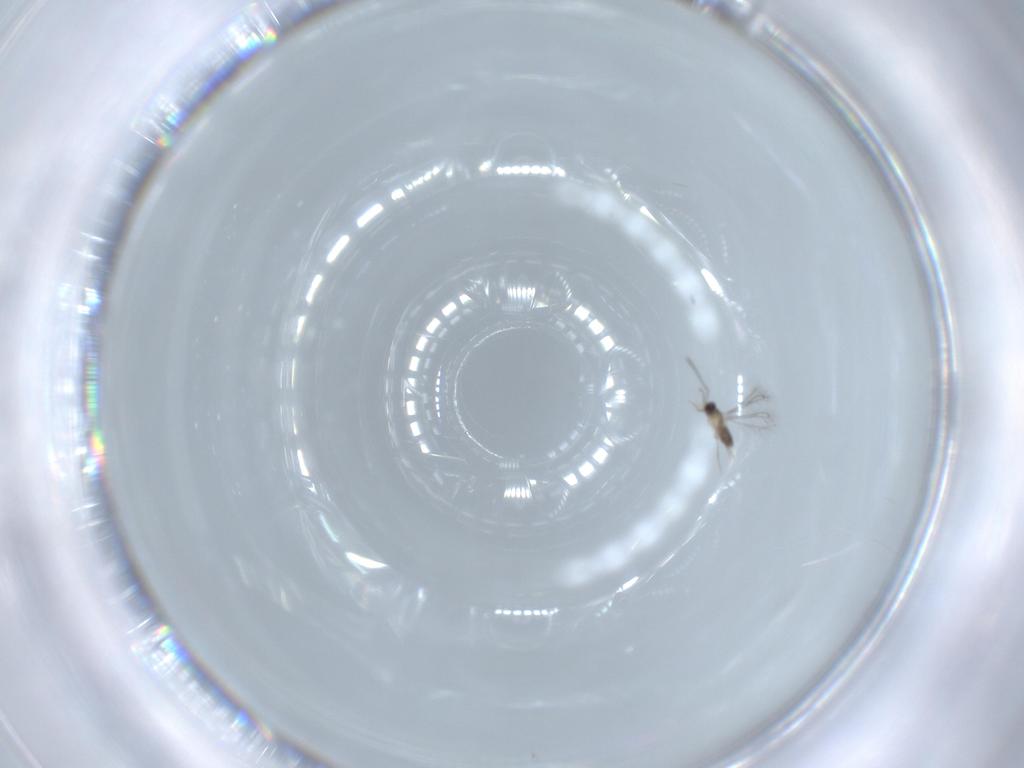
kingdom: Animalia
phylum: Arthropoda
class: Insecta
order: Hymenoptera
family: Mymaridae
